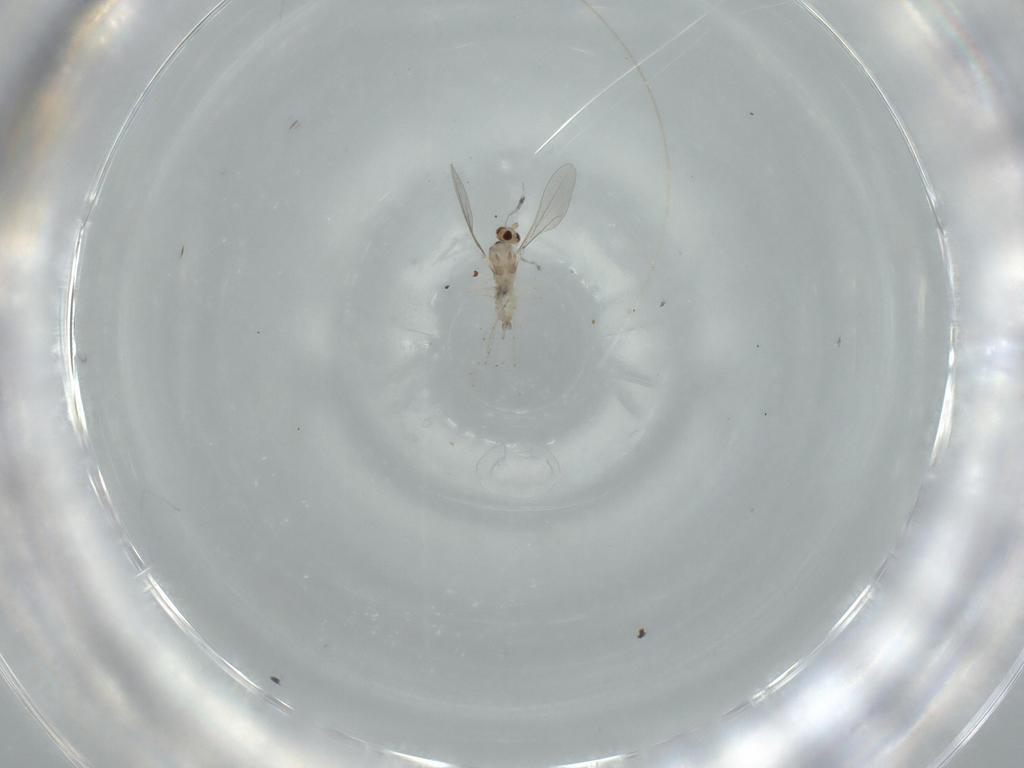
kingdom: Animalia
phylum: Arthropoda
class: Insecta
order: Diptera
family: Cecidomyiidae
